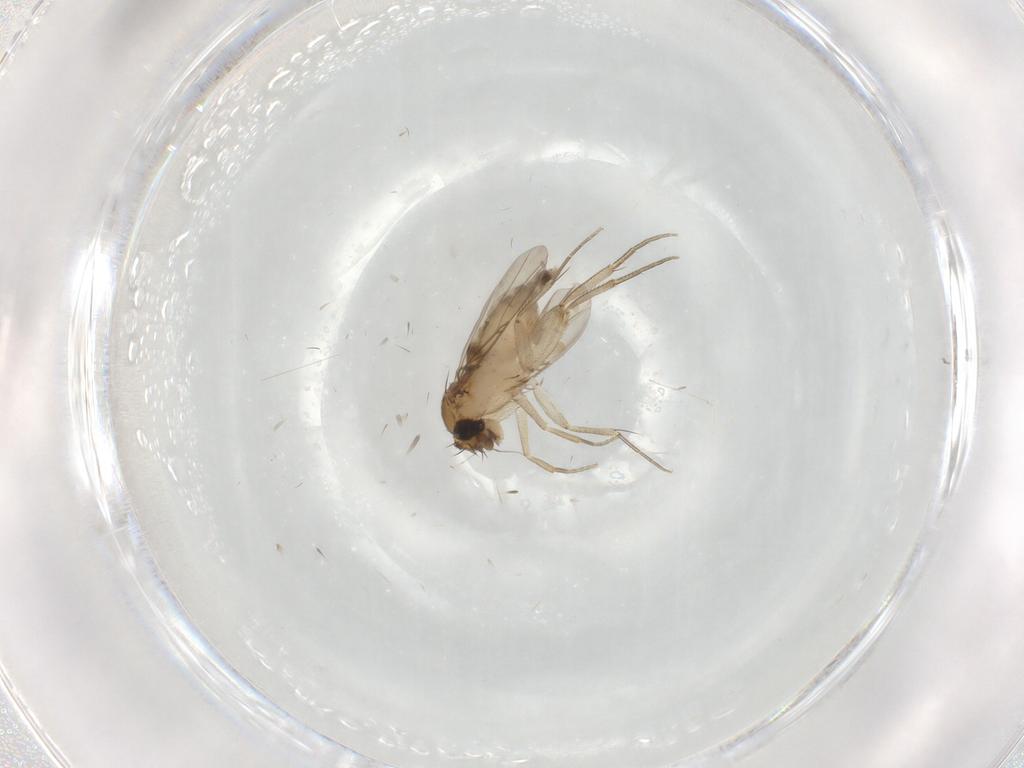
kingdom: Animalia
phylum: Arthropoda
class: Insecta
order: Diptera
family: Phoridae
